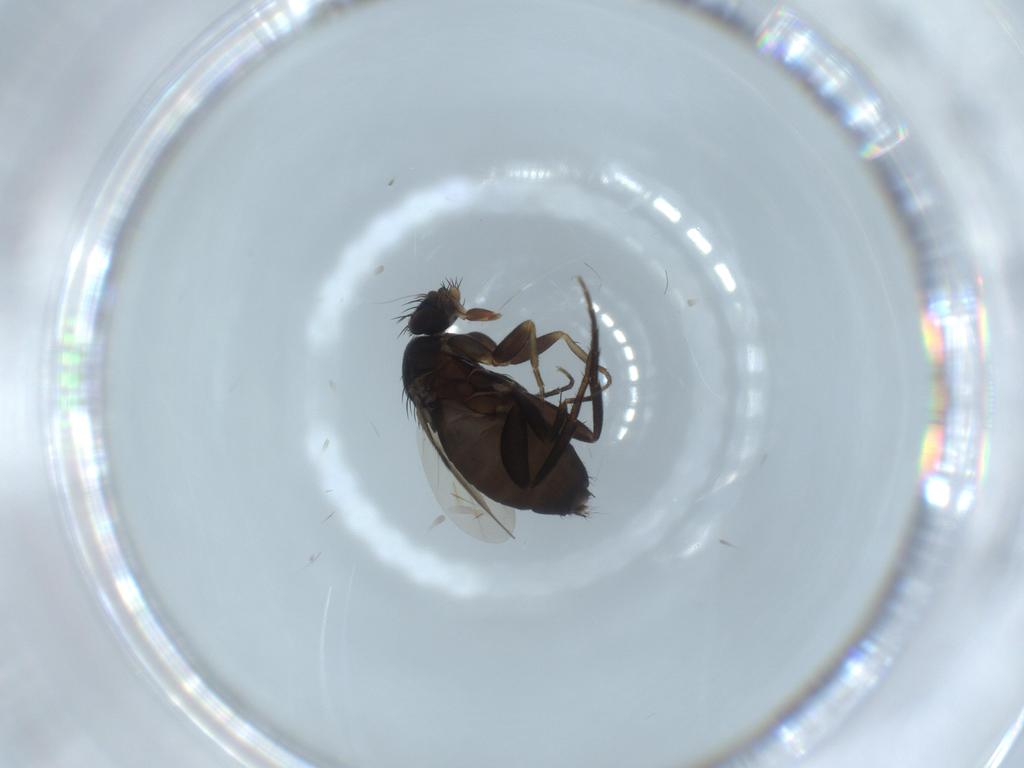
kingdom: Animalia
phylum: Arthropoda
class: Insecta
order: Diptera
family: Phoridae
